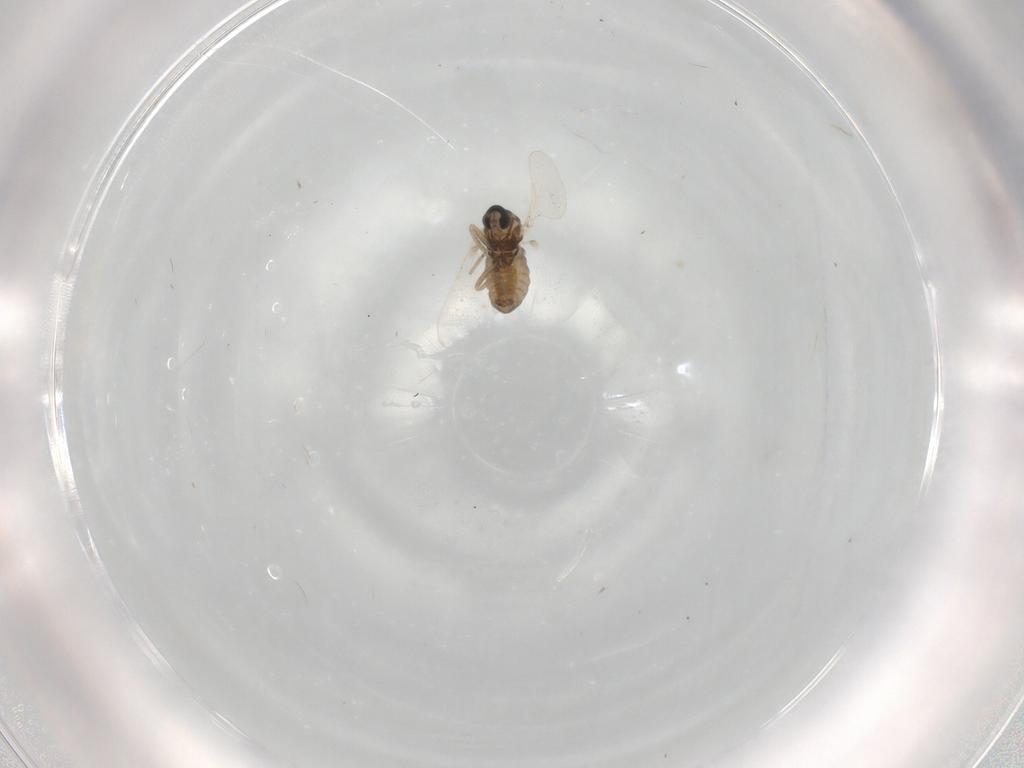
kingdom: Animalia
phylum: Arthropoda
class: Insecta
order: Diptera
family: Cecidomyiidae
